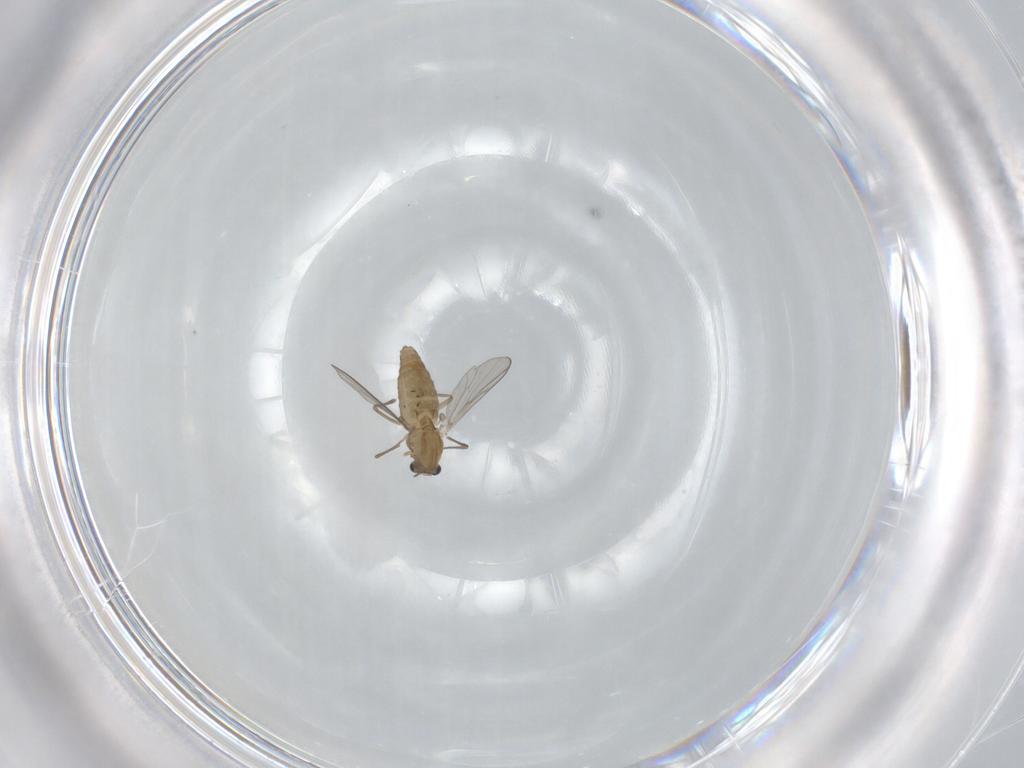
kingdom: Animalia
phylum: Arthropoda
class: Insecta
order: Diptera
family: Chironomidae
